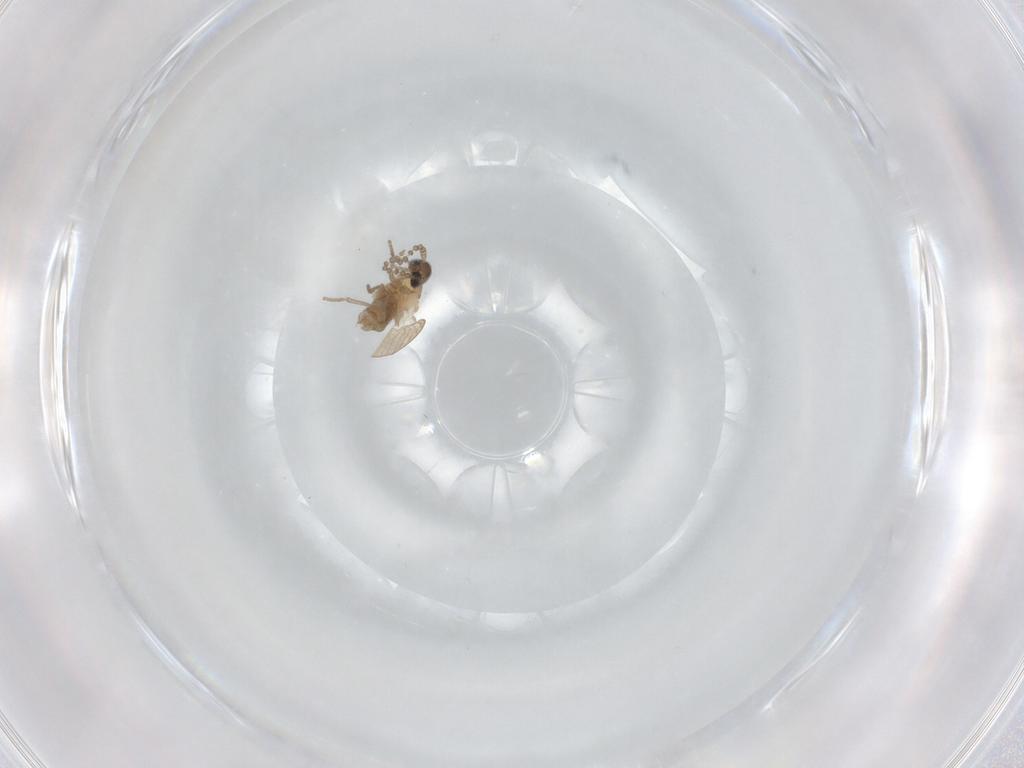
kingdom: Animalia
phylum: Arthropoda
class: Insecta
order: Diptera
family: Psychodidae
